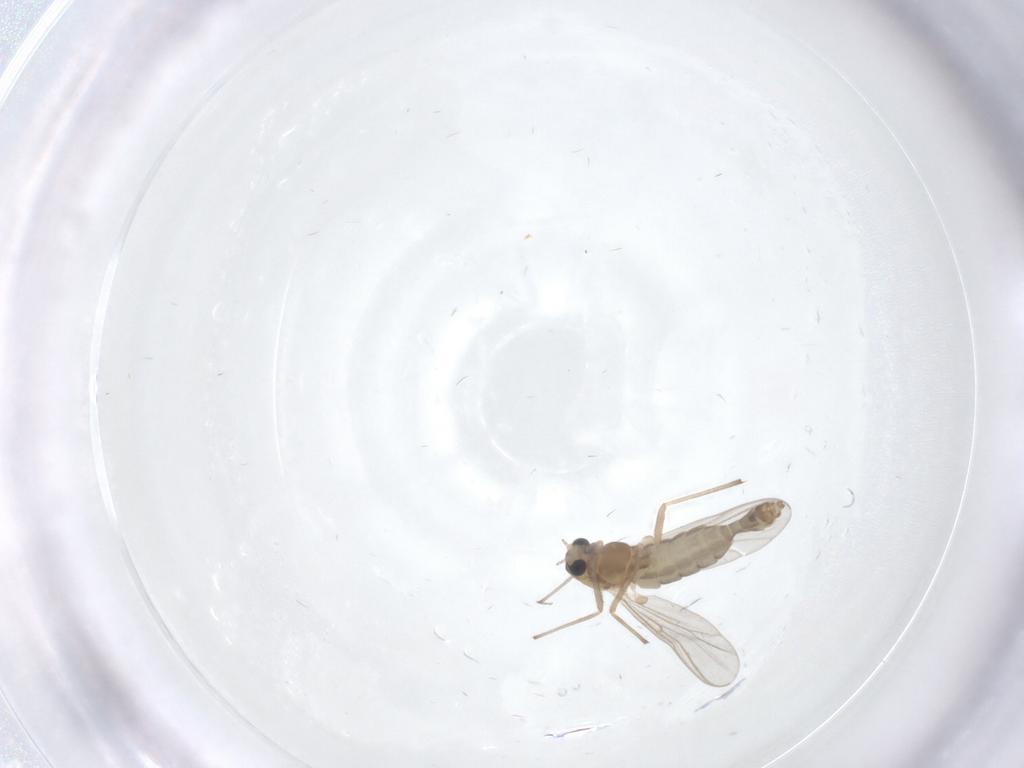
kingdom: Animalia
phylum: Arthropoda
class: Insecta
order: Diptera
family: Chironomidae
